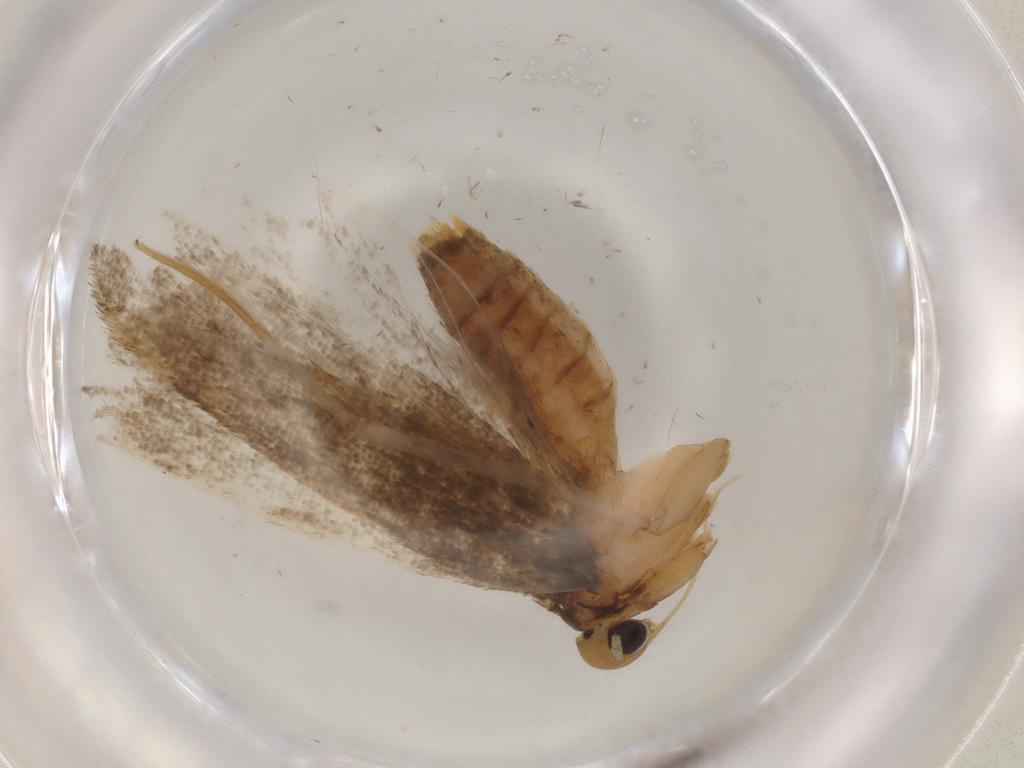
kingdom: Animalia
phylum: Arthropoda
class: Insecta
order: Lepidoptera
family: Lecithoceridae
